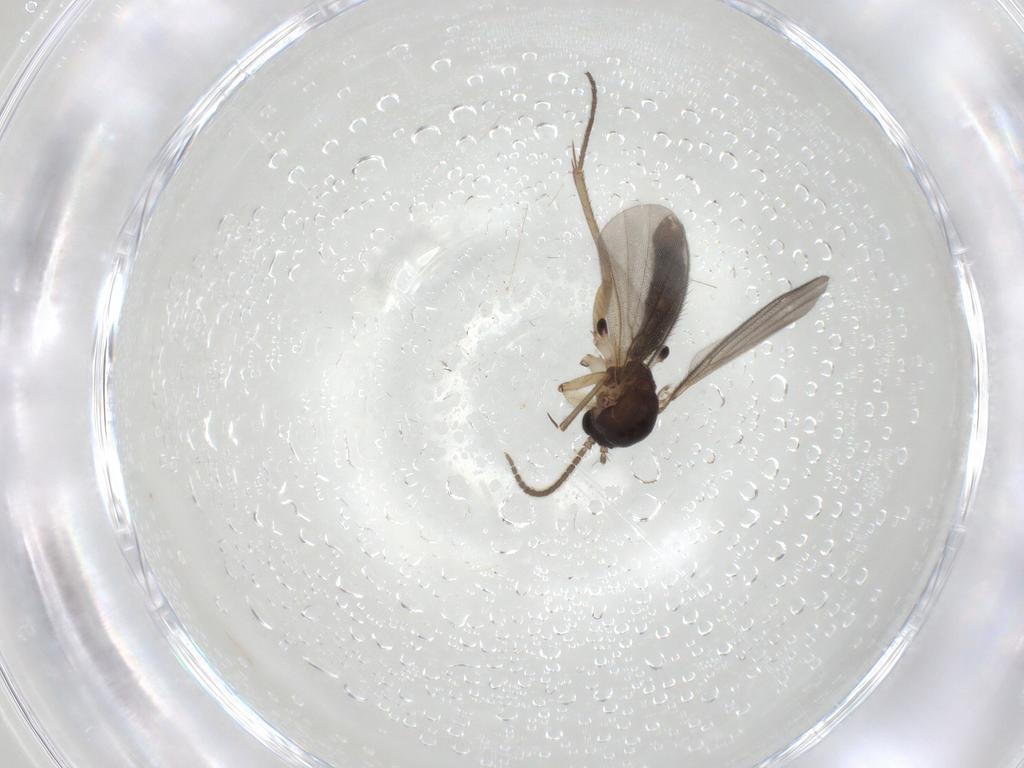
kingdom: Animalia
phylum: Arthropoda
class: Insecta
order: Diptera
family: Mycetophilidae
